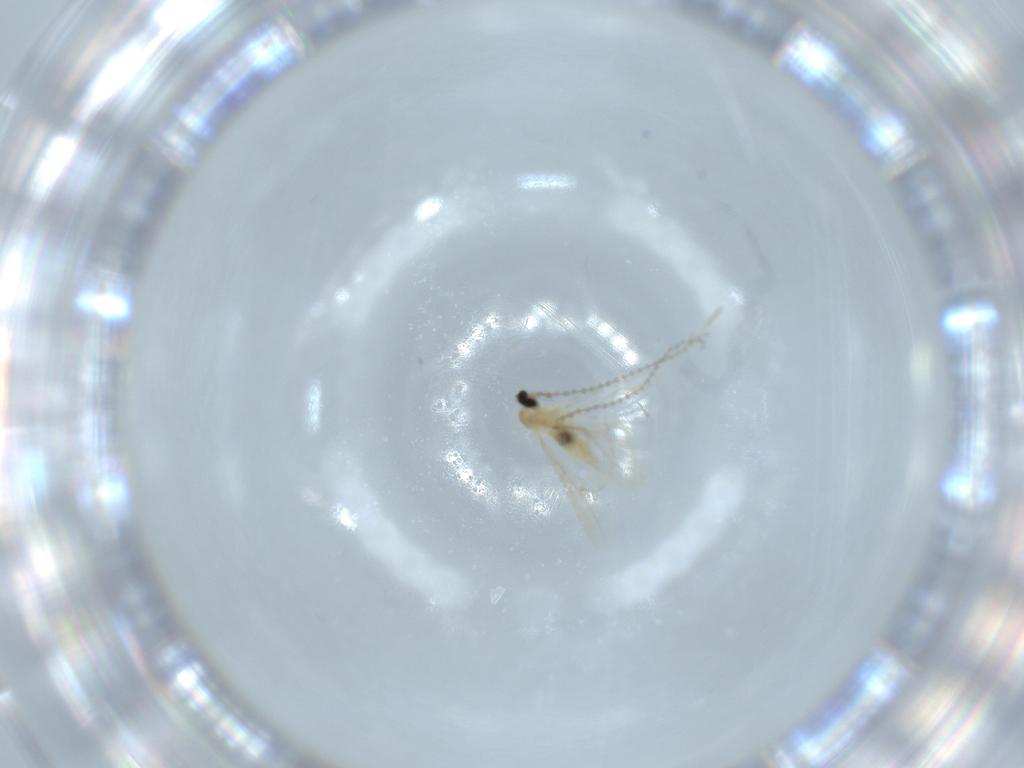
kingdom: Animalia
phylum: Arthropoda
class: Insecta
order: Diptera
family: Cecidomyiidae
